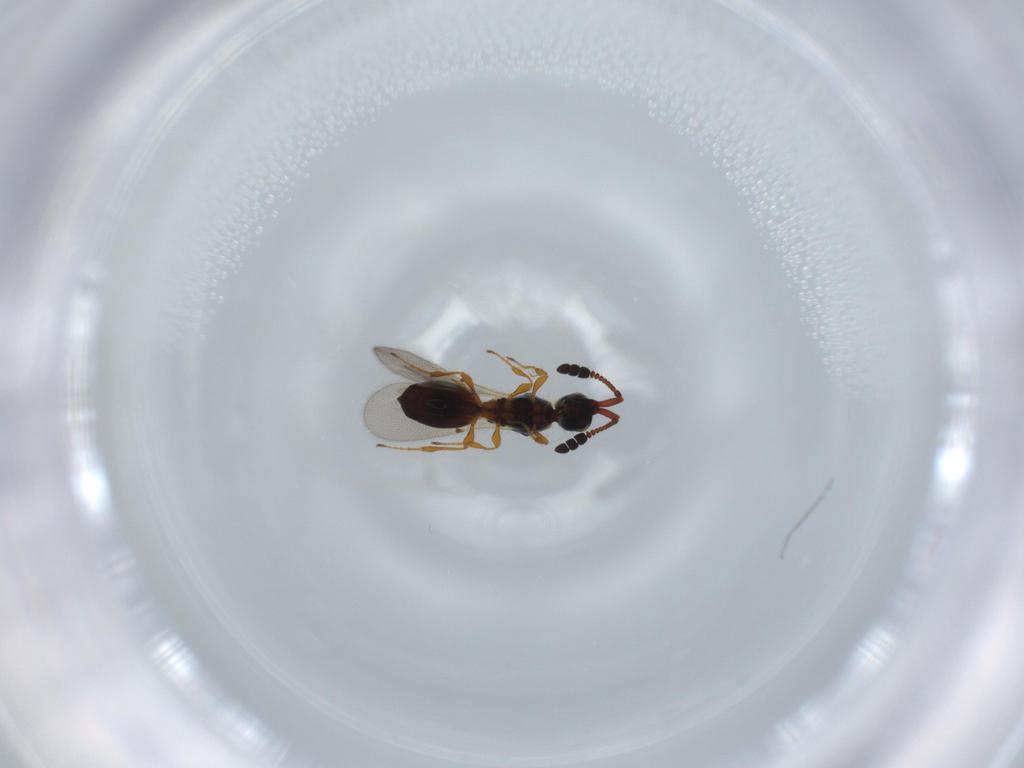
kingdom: Animalia
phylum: Arthropoda
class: Insecta
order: Hymenoptera
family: Diapriidae
